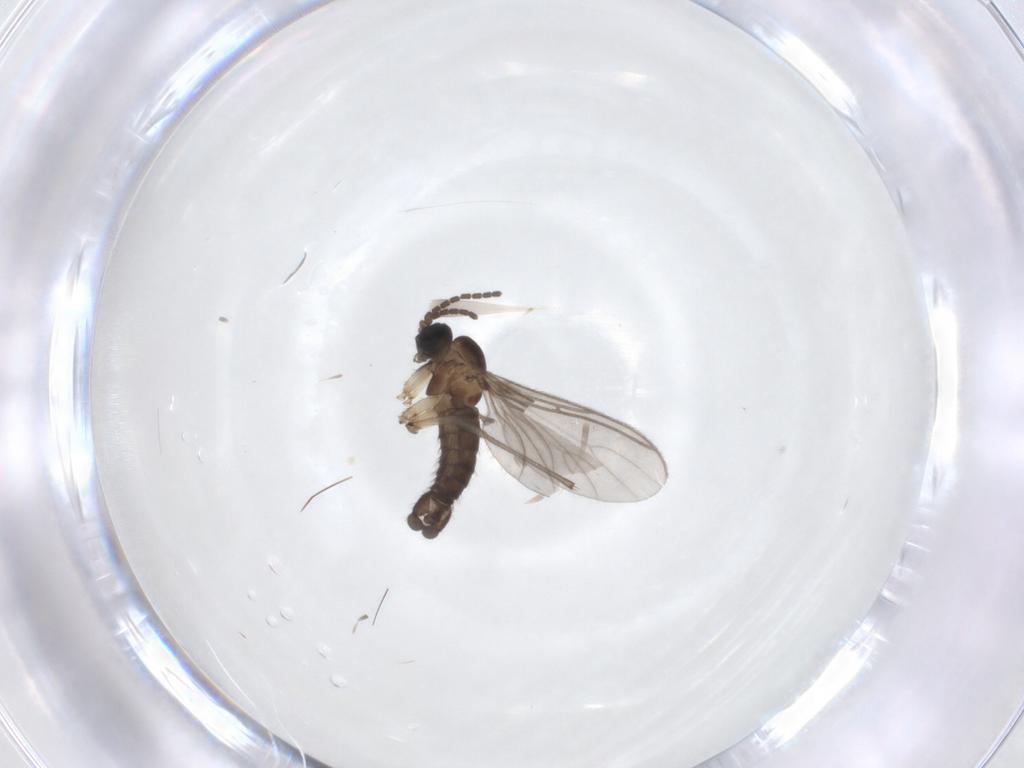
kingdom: Animalia
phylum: Arthropoda
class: Insecta
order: Diptera
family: Sciaridae
